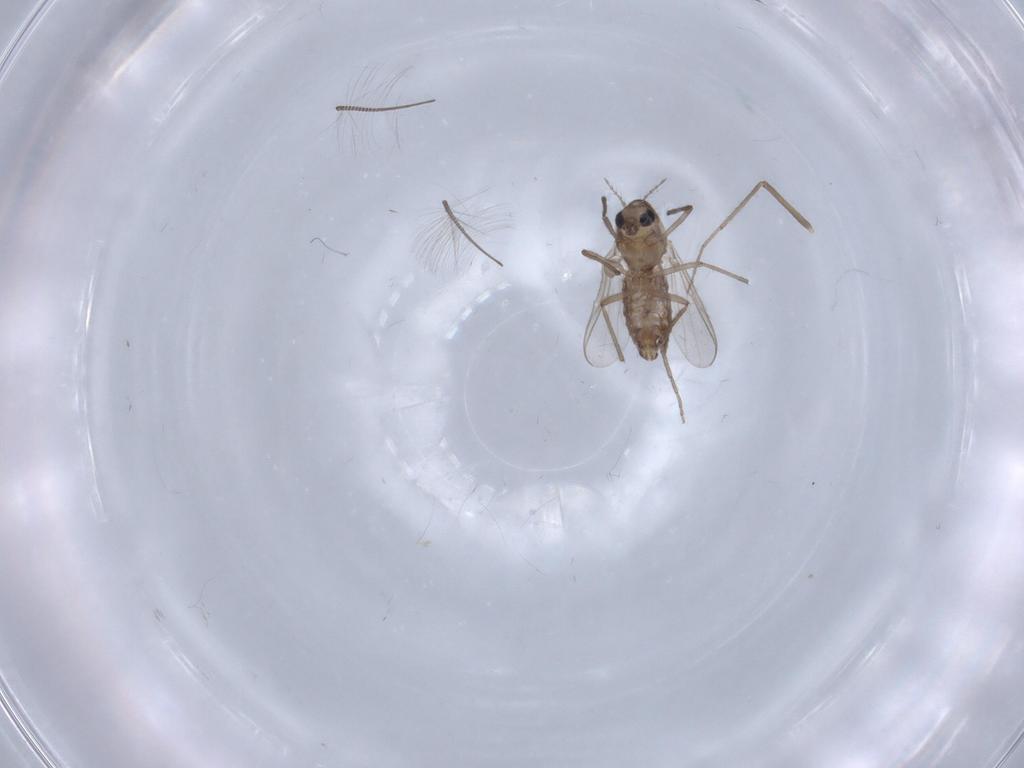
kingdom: Animalia
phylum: Arthropoda
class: Insecta
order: Diptera
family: Chironomidae
